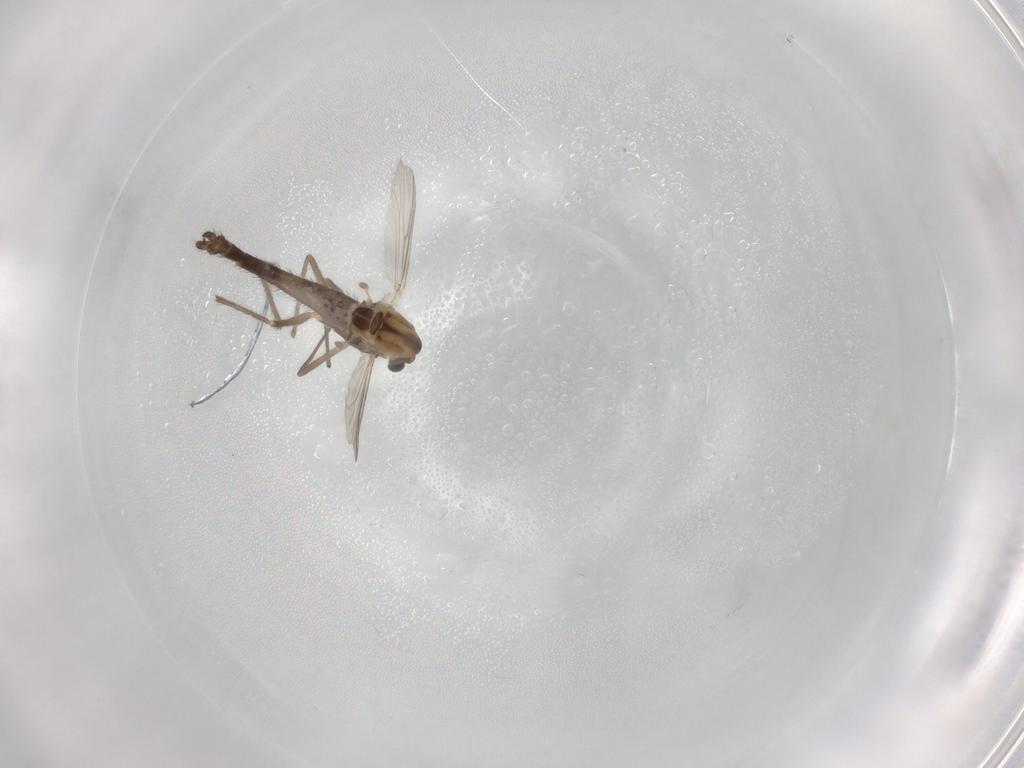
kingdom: Animalia
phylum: Arthropoda
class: Insecta
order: Diptera
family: Chironomidae
